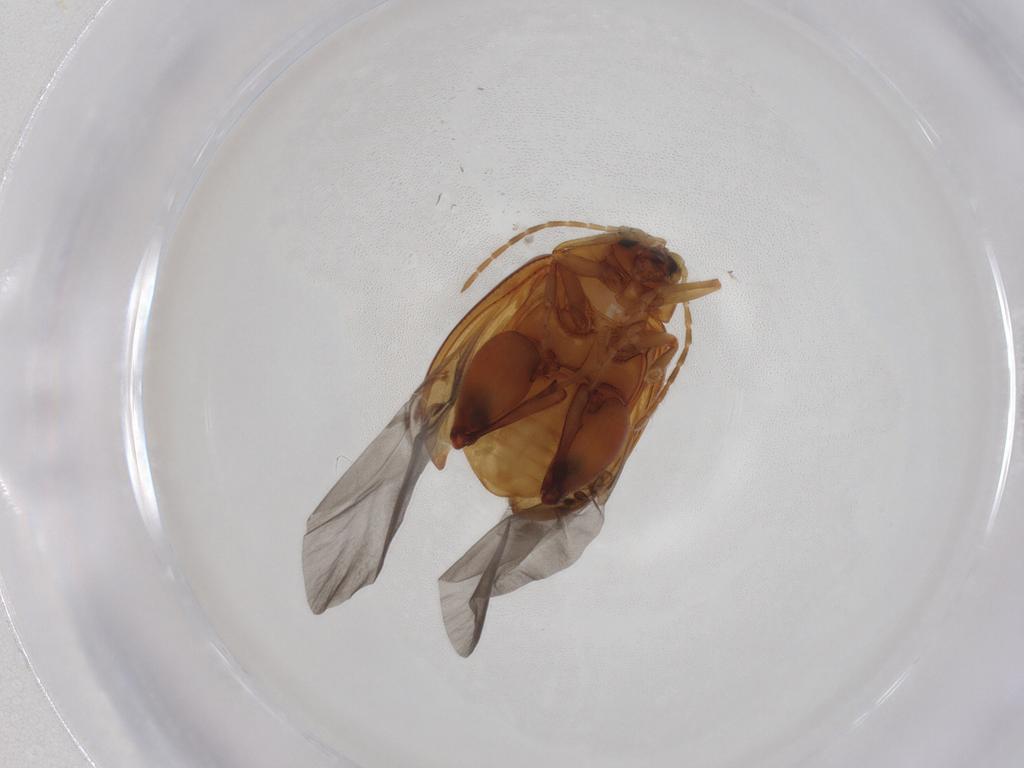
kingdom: Animalia
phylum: Arthropoda
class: Insecta
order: Coleoptera
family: Chrysomelidae
